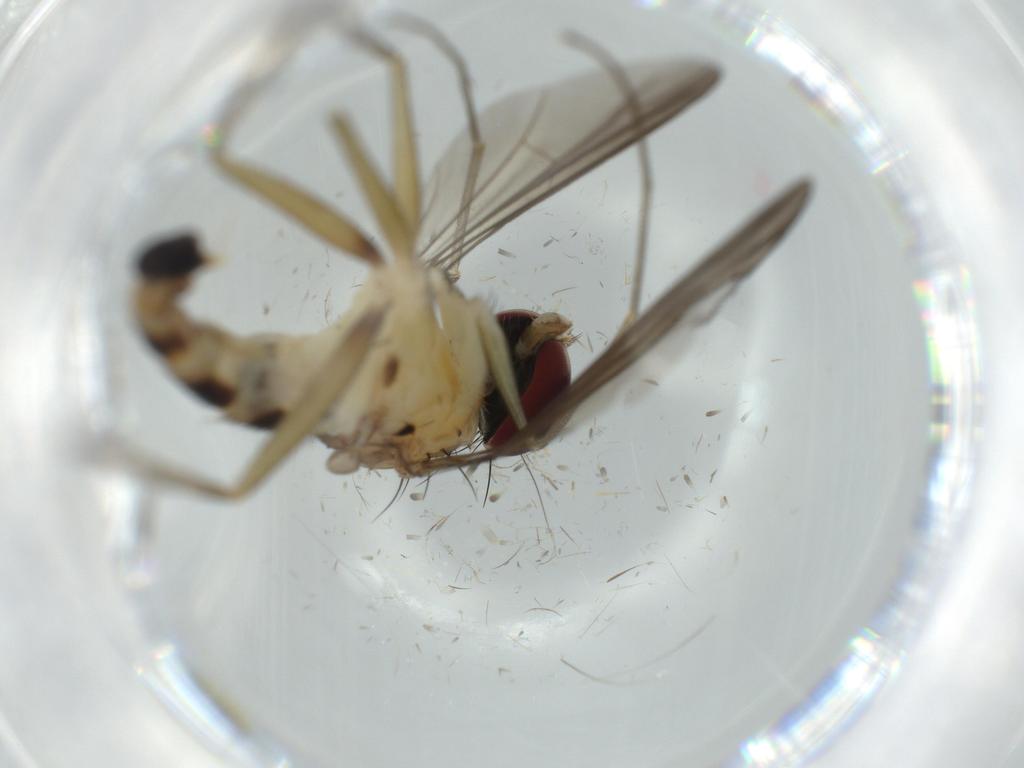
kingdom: Animalia
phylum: Arthropoda
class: Insecta
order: Diptera
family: Dolichopodidae
